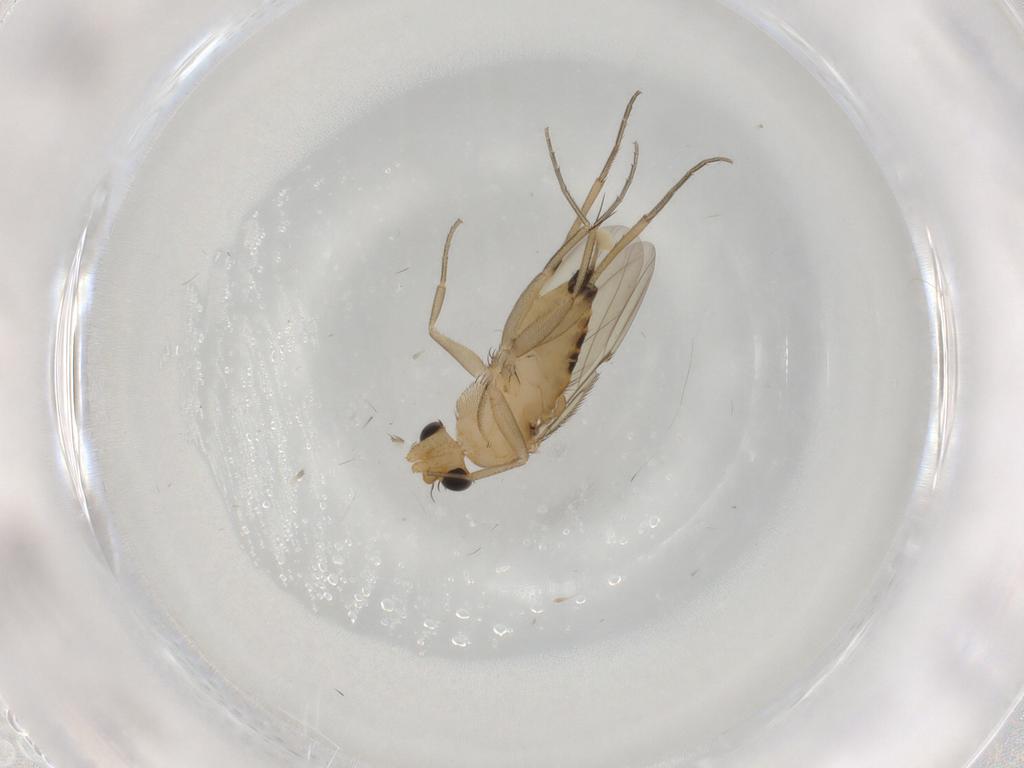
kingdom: Animalia
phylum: Arthropoda
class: Insecta
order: Diptera
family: Phoridae
